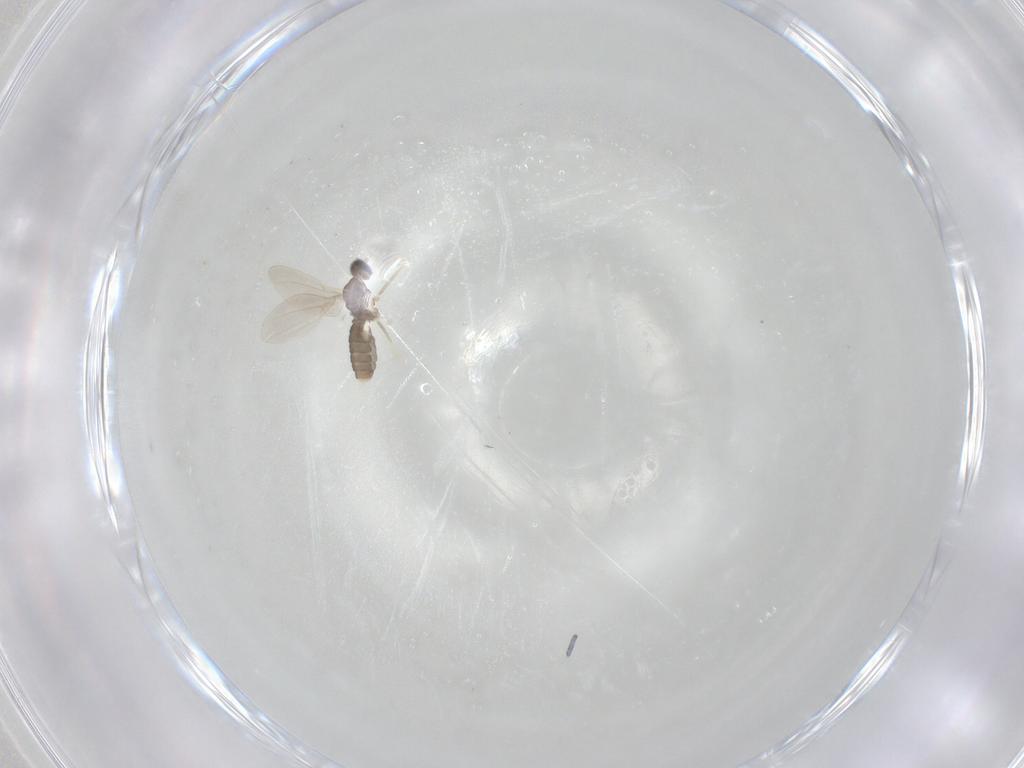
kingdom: Animalia
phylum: Arthropoda
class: Insecta
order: Diptera
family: Cecidomyiidae
